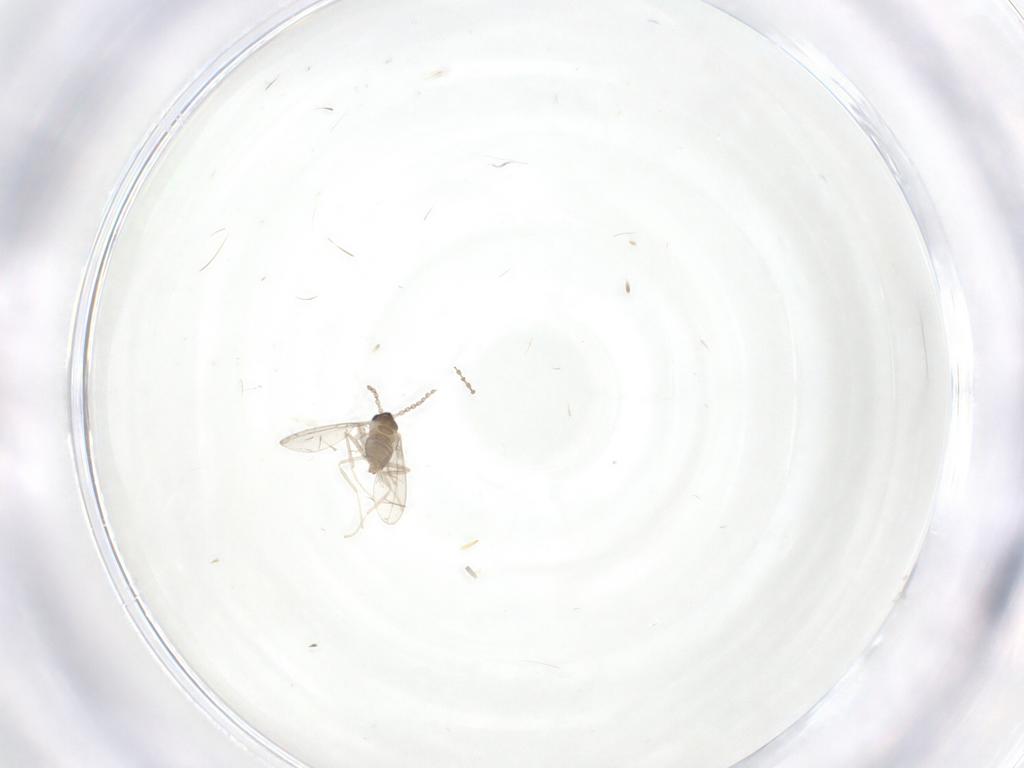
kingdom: Animalia
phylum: Arthropoda
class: Insecta
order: Diptera
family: Cecidomyiidae
